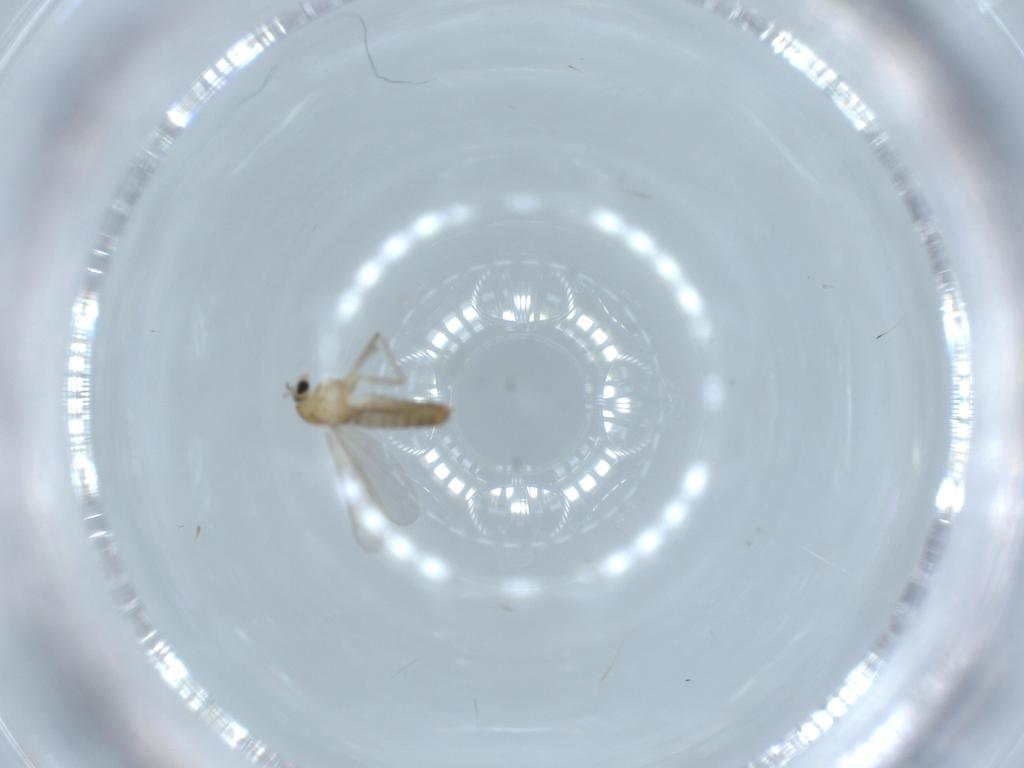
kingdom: Animalia
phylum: Arthropoda
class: Insecta
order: Diptera
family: Chironomidae
